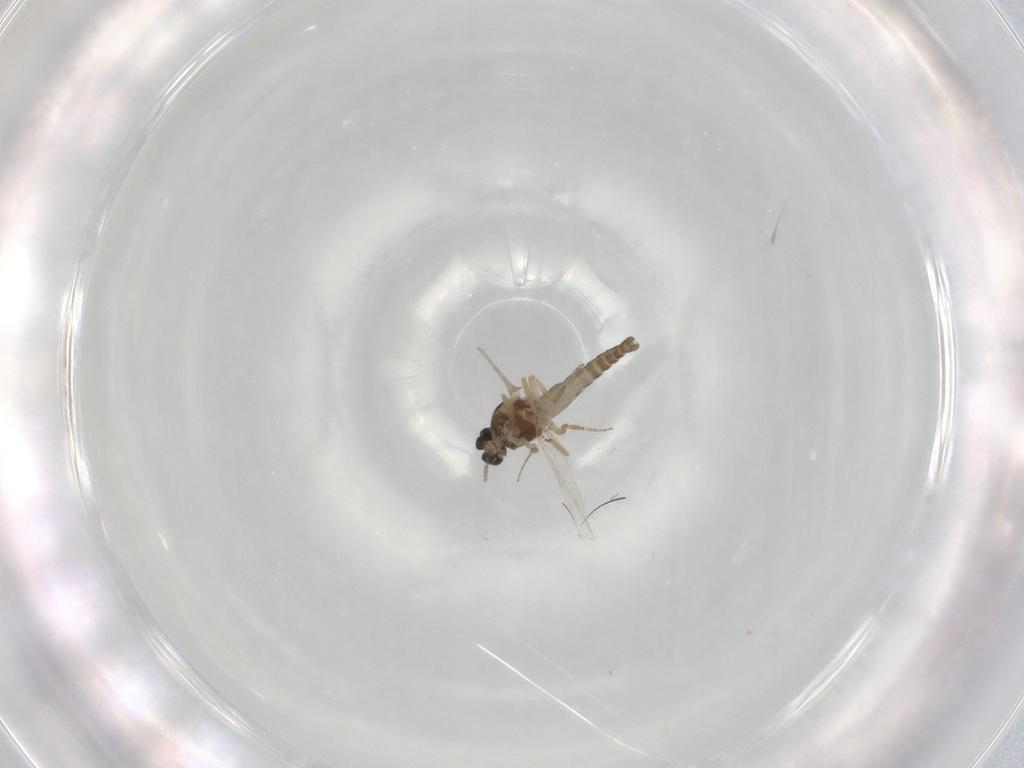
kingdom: Animalia
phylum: Arthropoda
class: Insecta
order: Diptera
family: Ceratopogonidae
